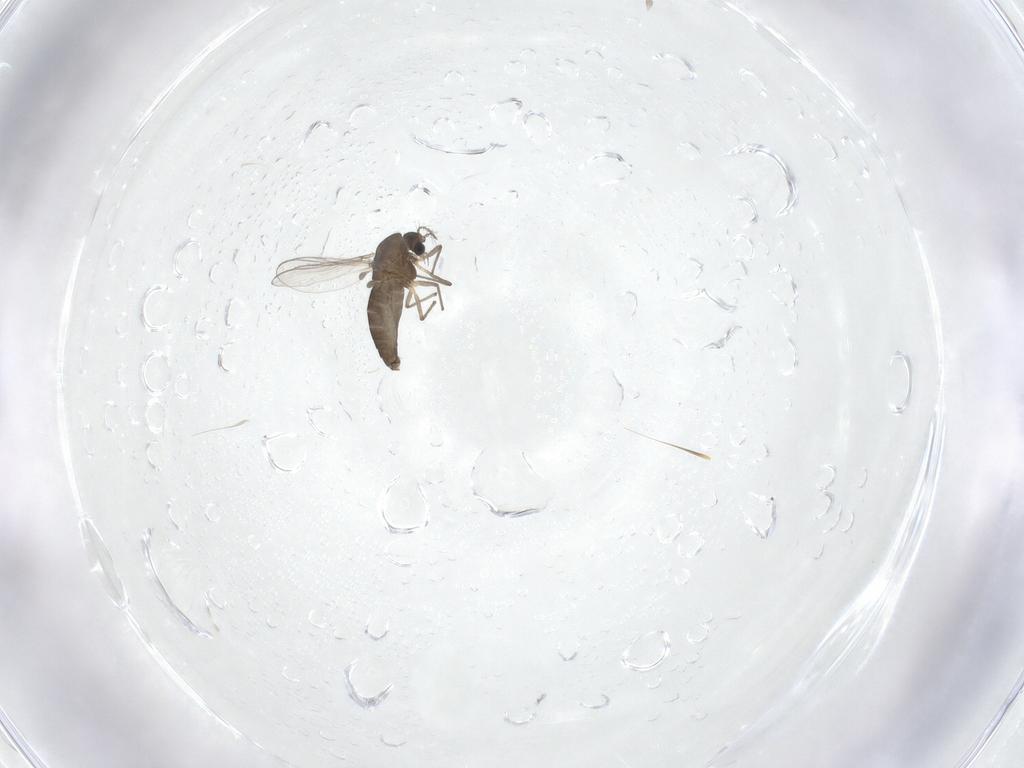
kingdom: Animalia
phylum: Arthropoda
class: Insecta
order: Diptera
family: Chironomidae
